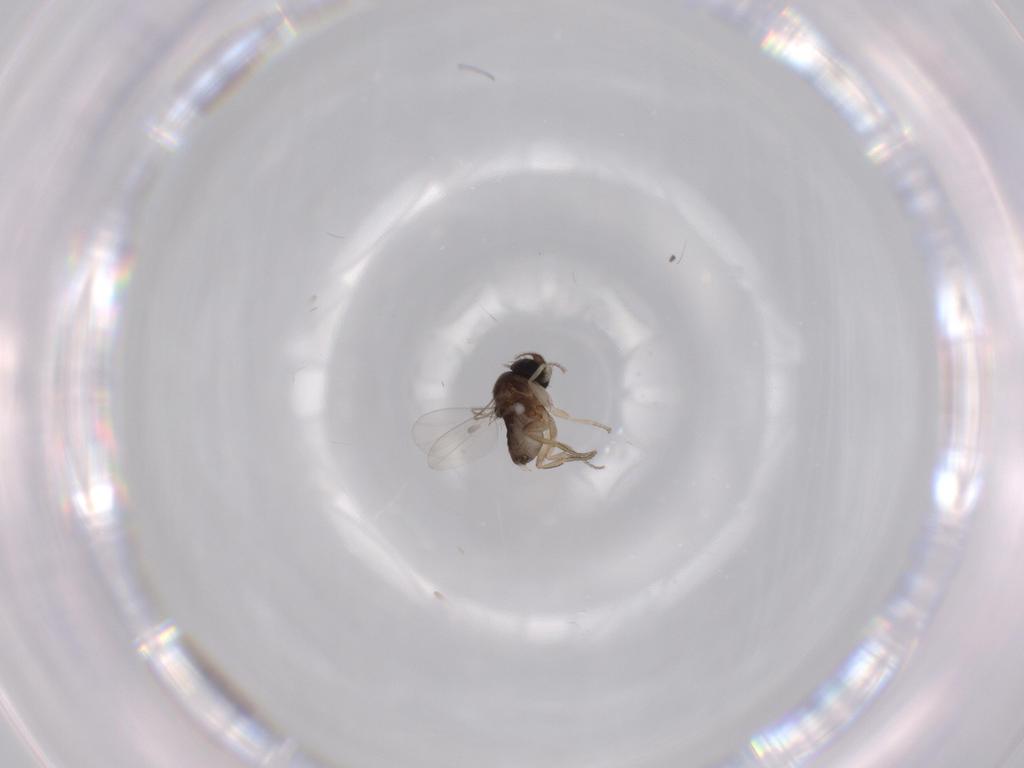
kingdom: Animalia
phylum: Arthropoda
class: Insecta
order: Diptera
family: Phoridae
